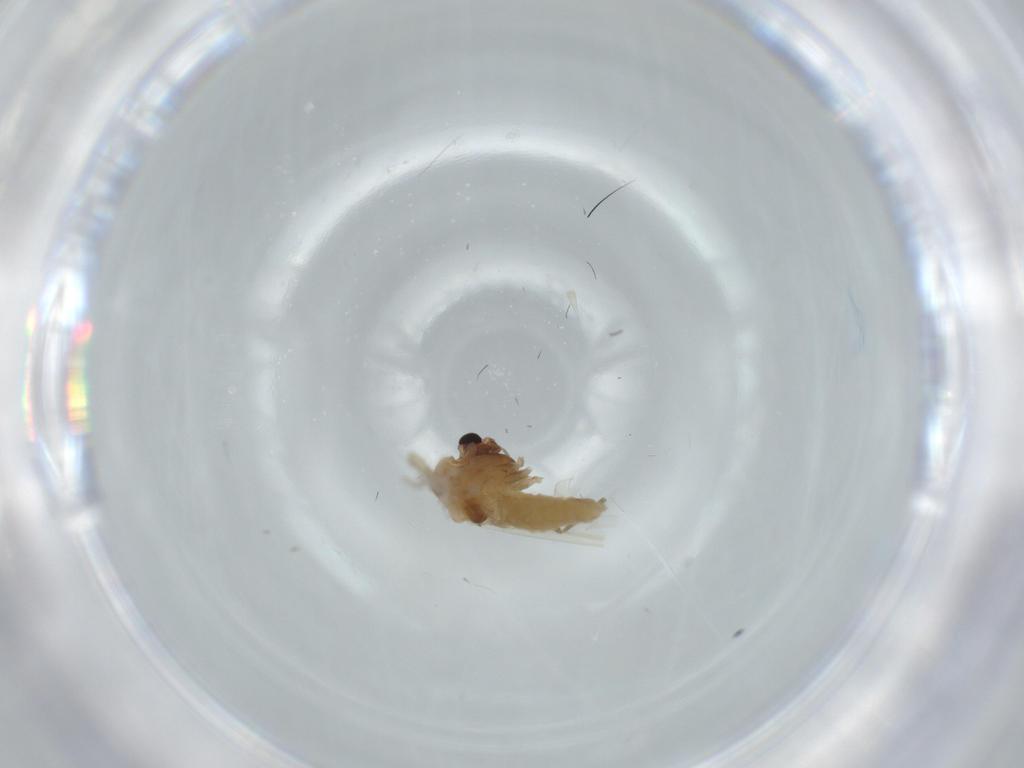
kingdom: Animalia
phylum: Arthropoda
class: Insecta
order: Diptera
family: Chironomidae
